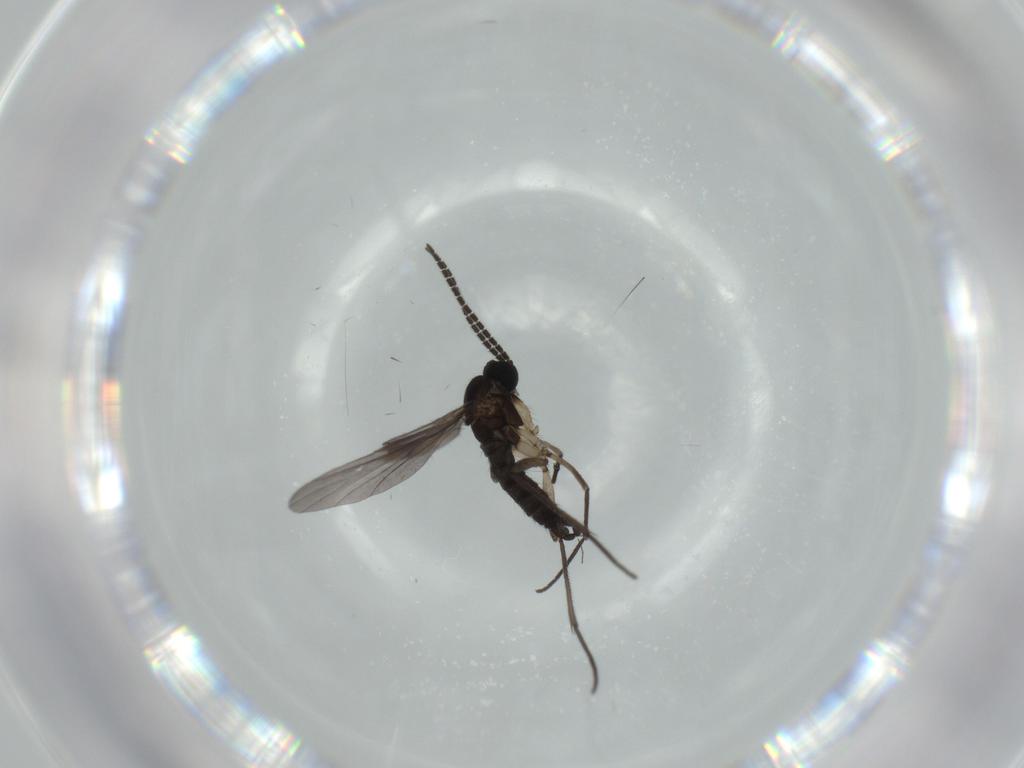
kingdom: Animalia
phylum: Arthropoda
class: Insecta
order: Diptera
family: Sciaridae
